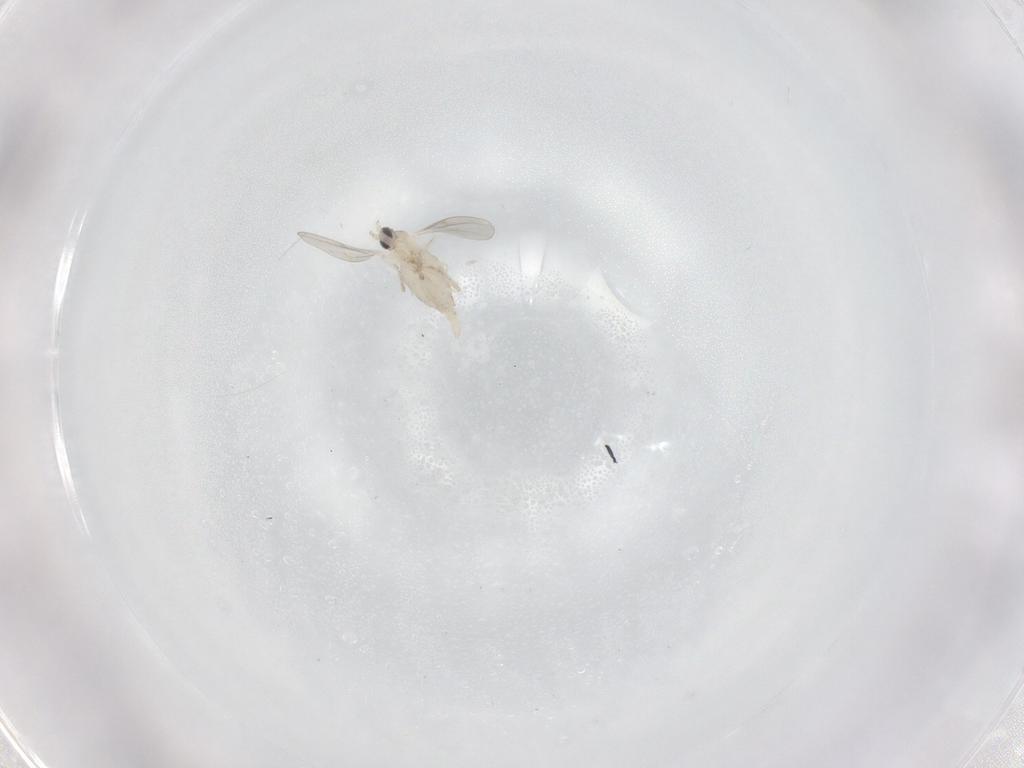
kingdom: Animalia
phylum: Arthropoda
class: Insecta
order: Diptera
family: Cecidomyiidae
